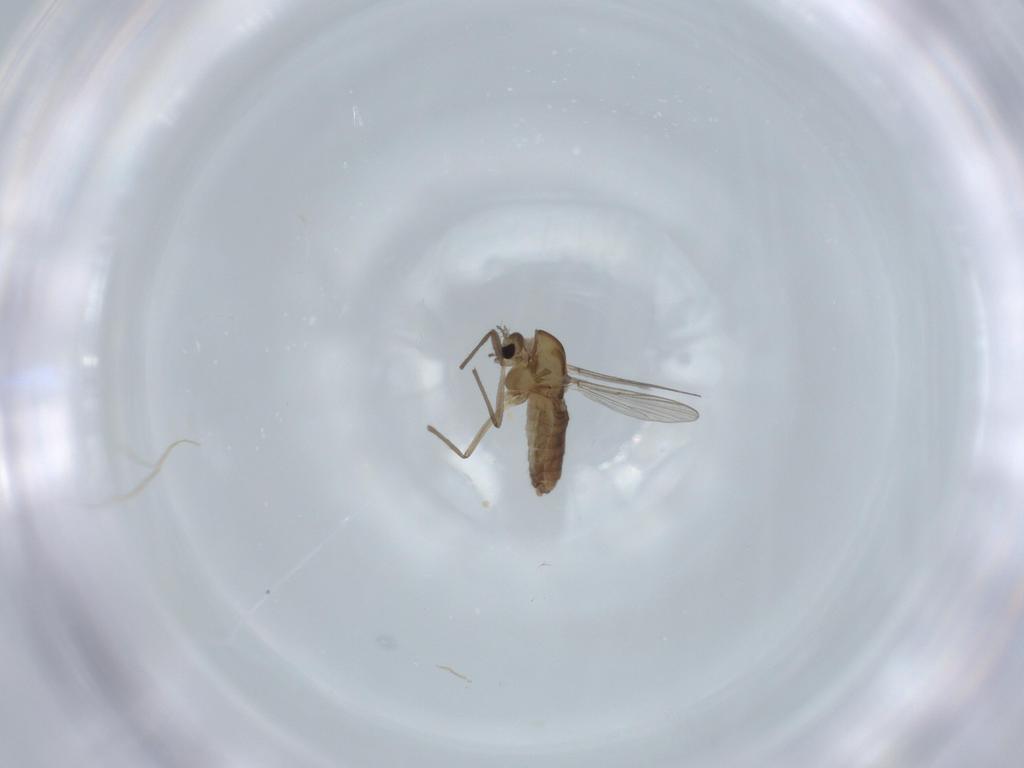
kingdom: Animalia
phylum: Arthropoda
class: Insecta
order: Diptera
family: Chironomidae
